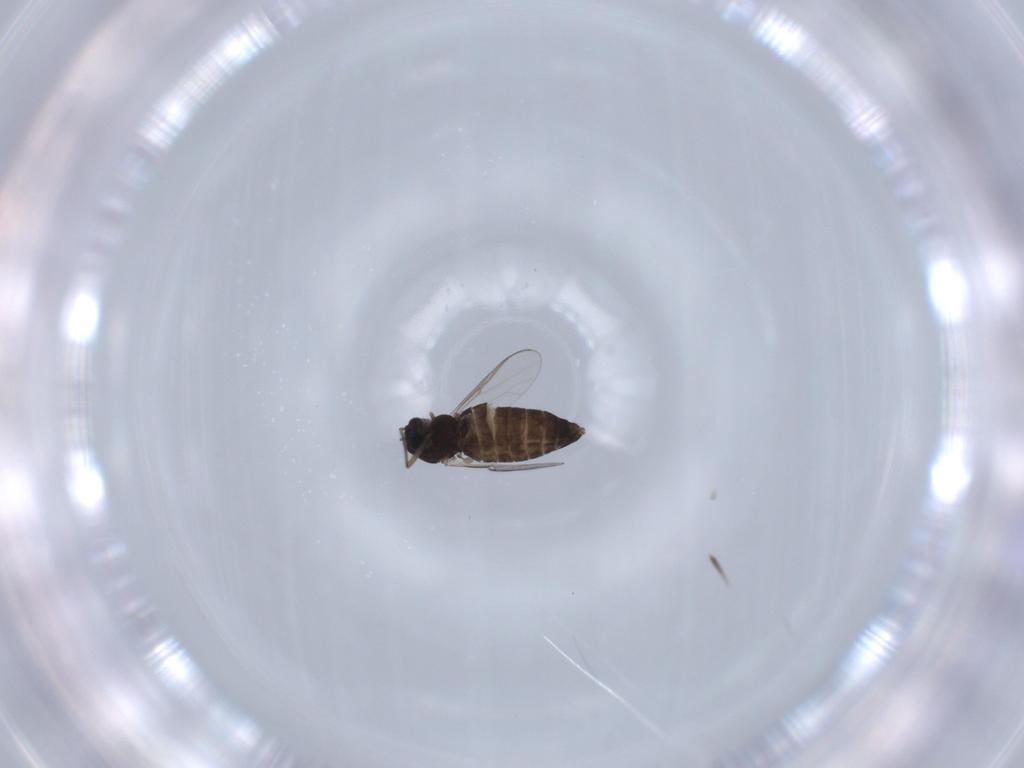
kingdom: Animalia
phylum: Arthropoda
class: Insecta
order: Diptera
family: Chironomidae
